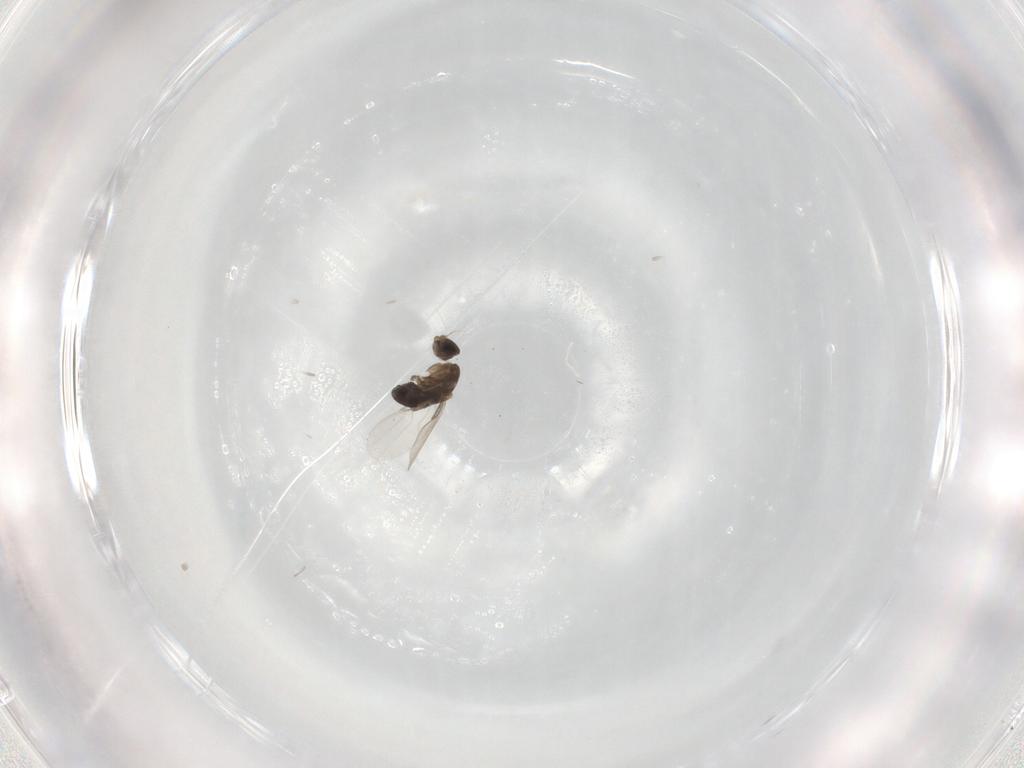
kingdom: Animalia
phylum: Arthropoda
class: Insecta
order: Diptera
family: Phoridae
